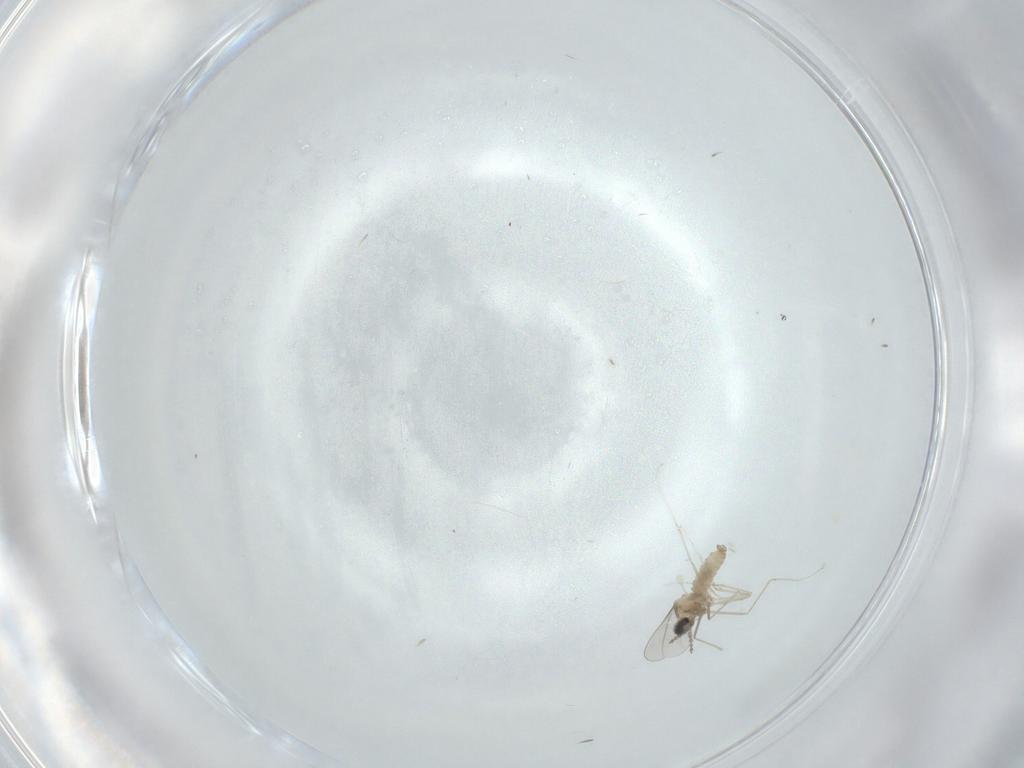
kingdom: Animalia
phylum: Arthropoda
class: Insecta
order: Diptera
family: Cecidomyiidae
